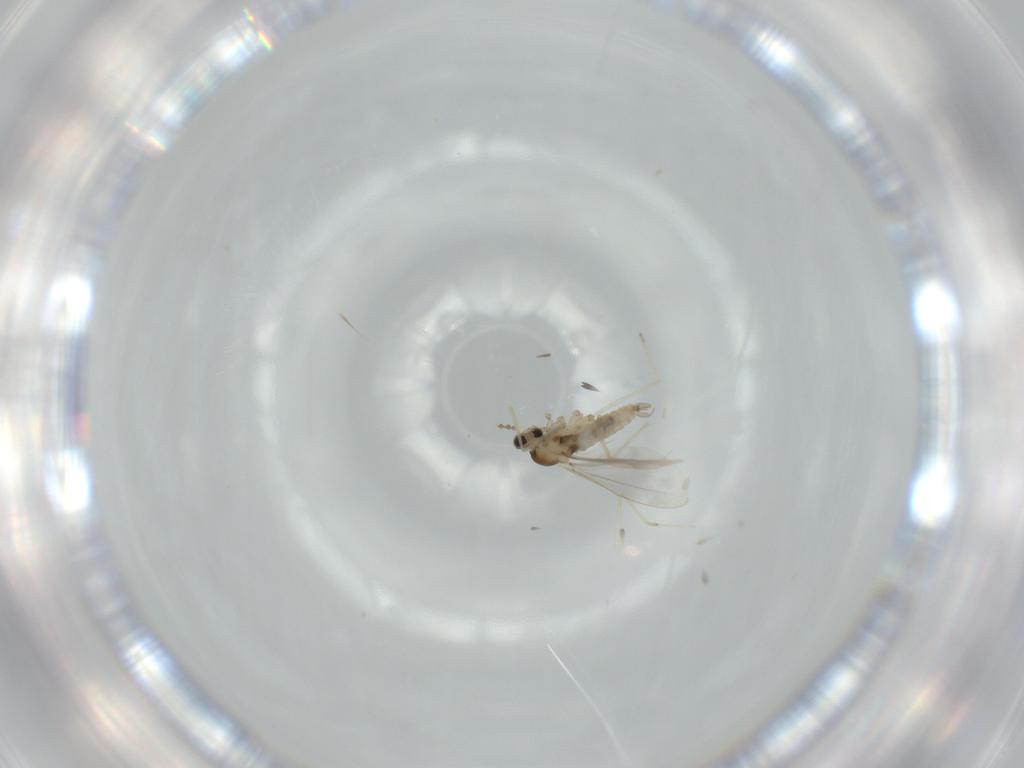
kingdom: Animalia
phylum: Arthropoda
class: Insecta
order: Diptera
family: Cecidomyiidae
